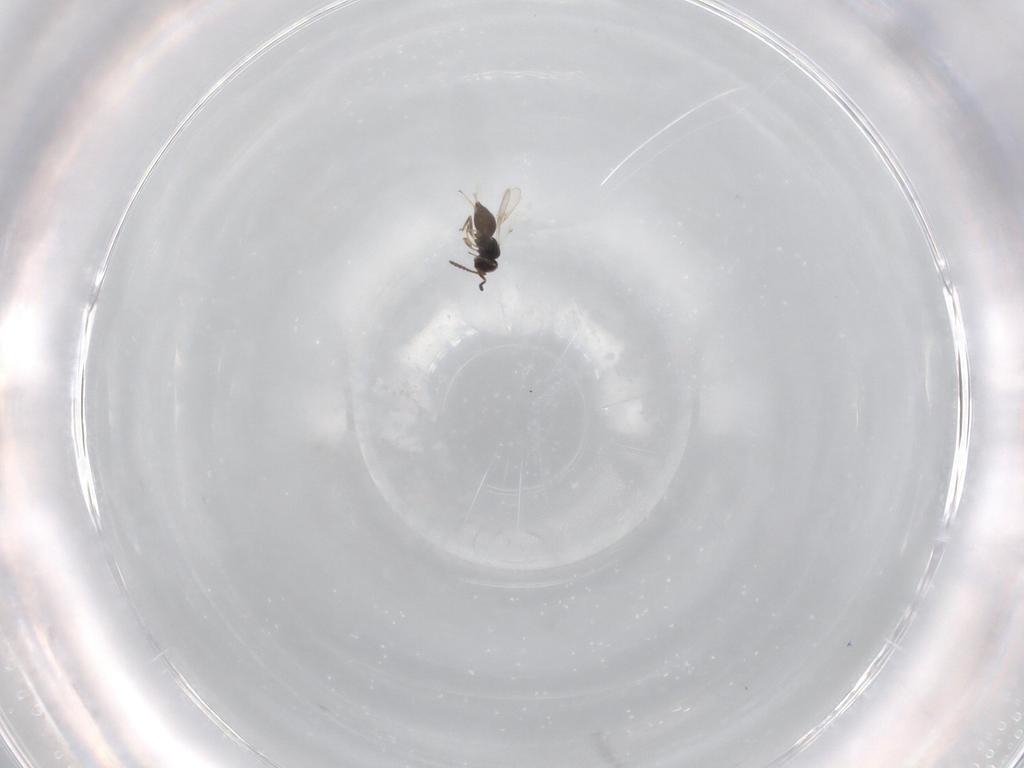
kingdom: Animalia
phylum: Arthropoda
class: Insecta
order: Hymenoptera
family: Scelionidae
